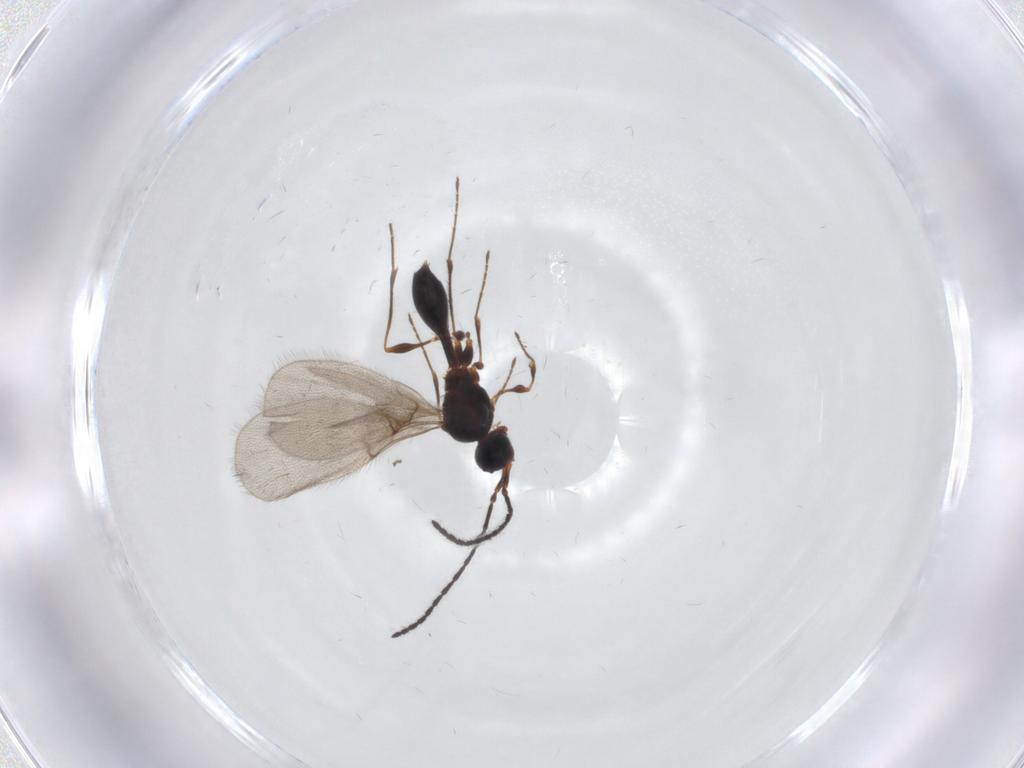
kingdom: Animalia
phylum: Arthropoda
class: Insecta
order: Hymenoptera
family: Diapriidae
